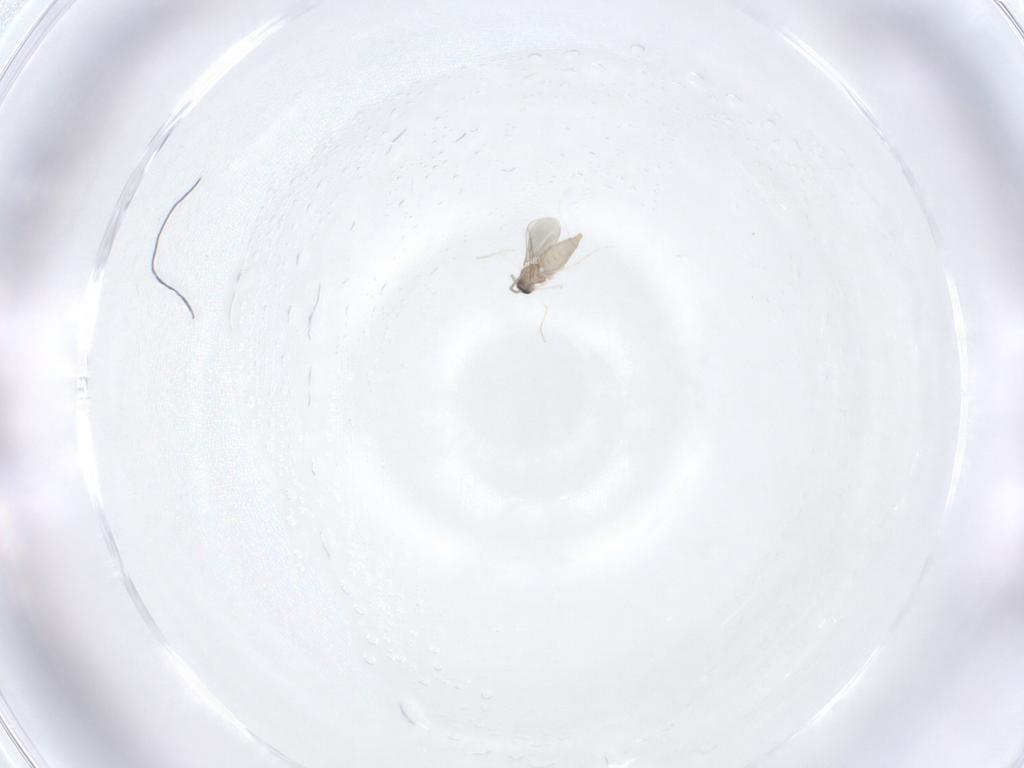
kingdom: Animalia
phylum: Arthropoda
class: Insecta
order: Diptera
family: Cecidomyiidae
